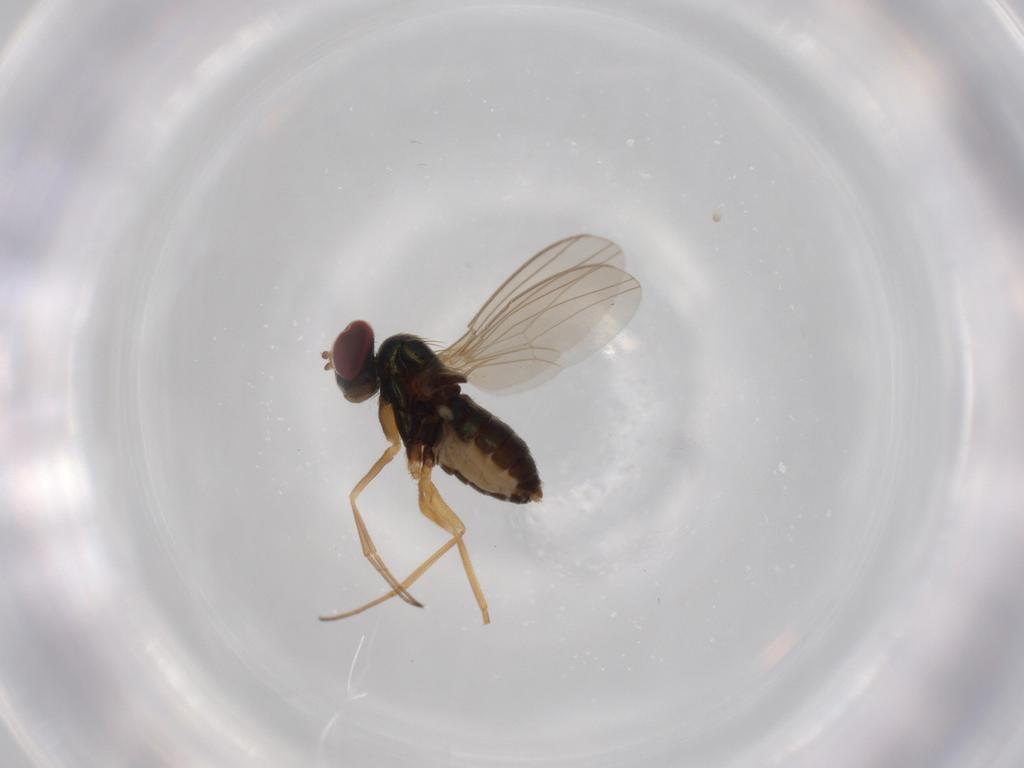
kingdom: Animalia
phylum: Arthropoda
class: Insecta
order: Diptera
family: Dolichopodidae
